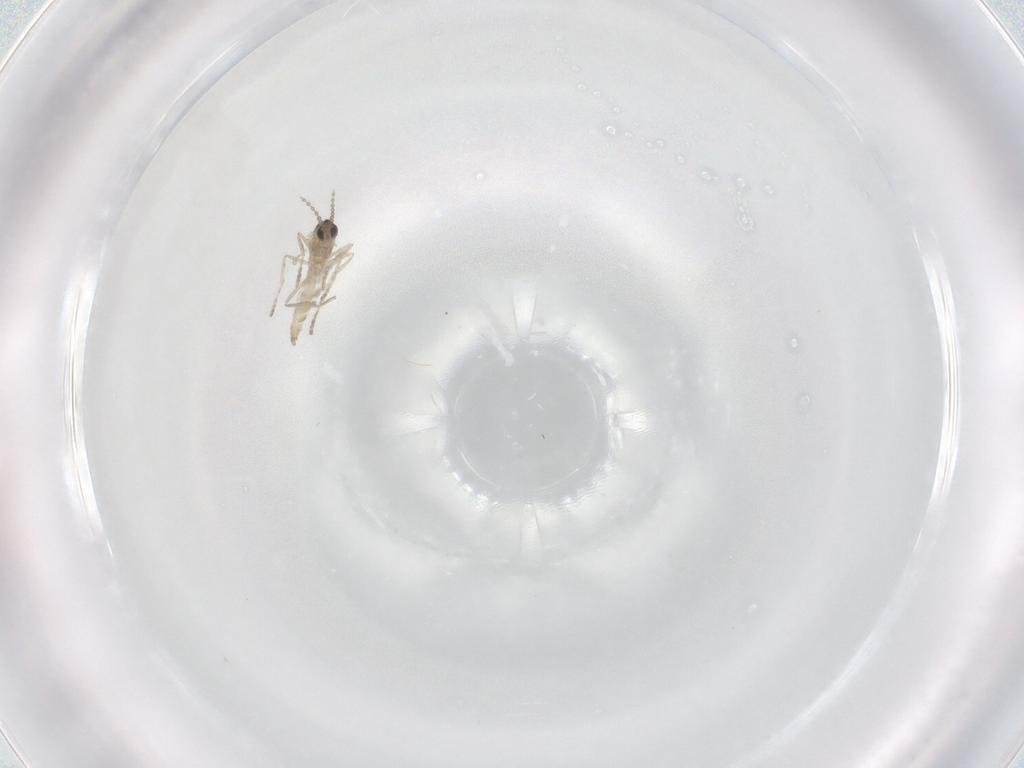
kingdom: Animalia
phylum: Arthropoda
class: Insecta
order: Diptera
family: Cecidomyiidae
